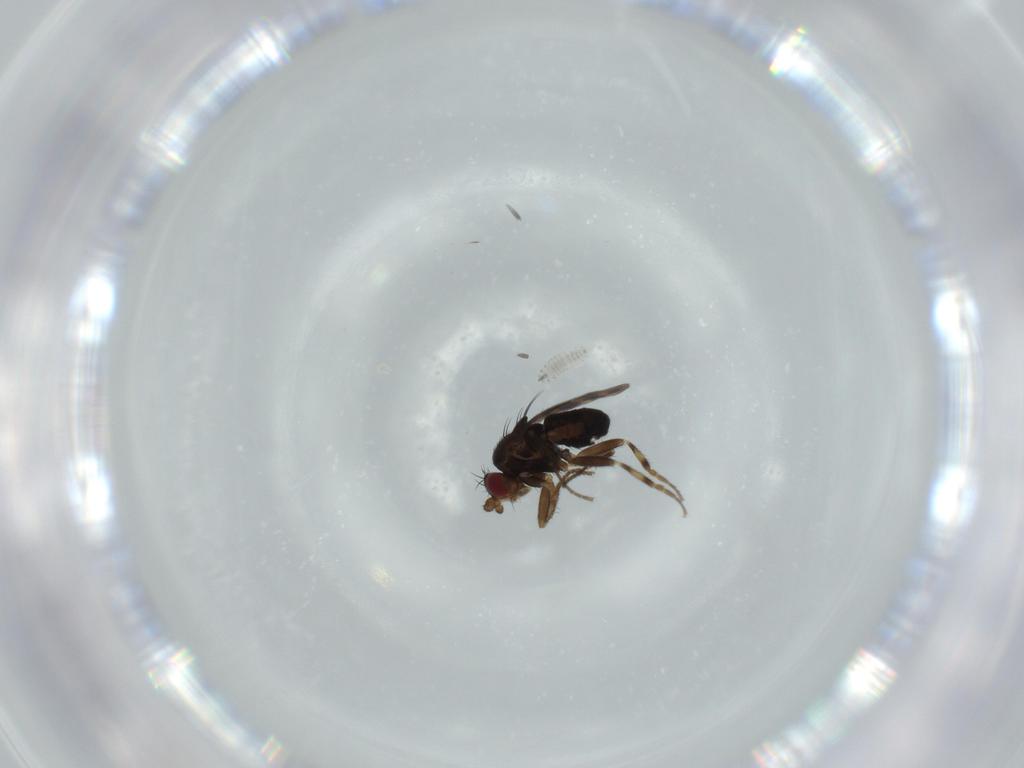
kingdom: Animalia
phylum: Arthropoda
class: Insecta
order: Diptera
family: Sphaeroceridae
